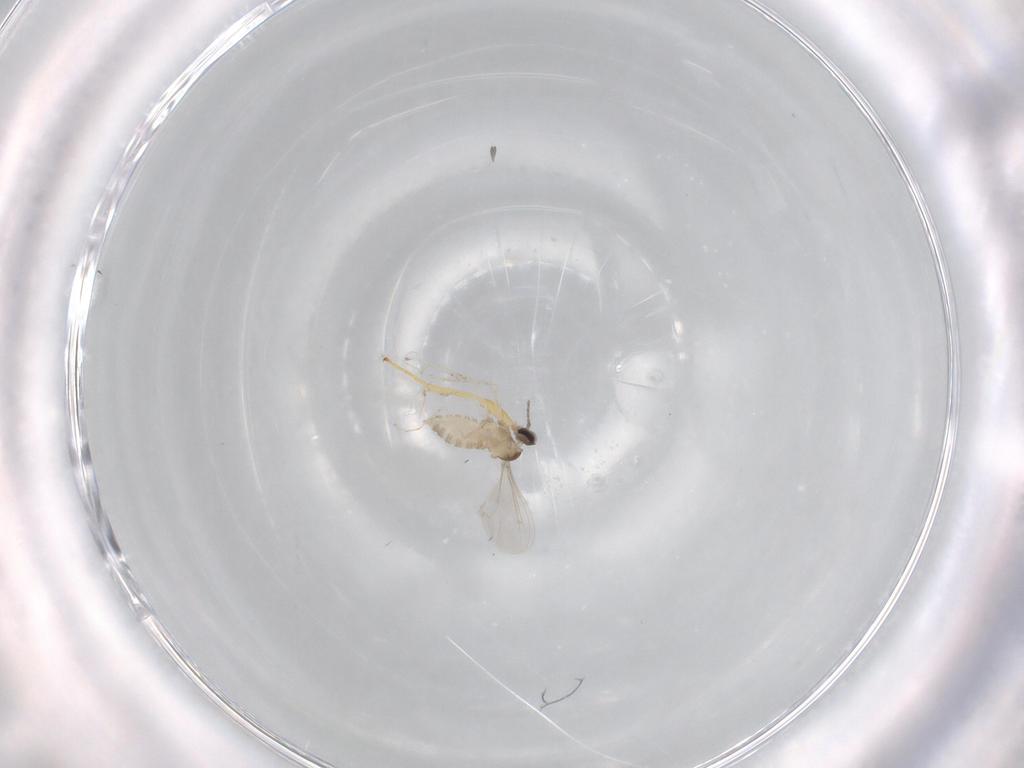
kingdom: Animalia
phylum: Arthropoda
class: Insecta
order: Diptera
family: Cecidomyiidae
